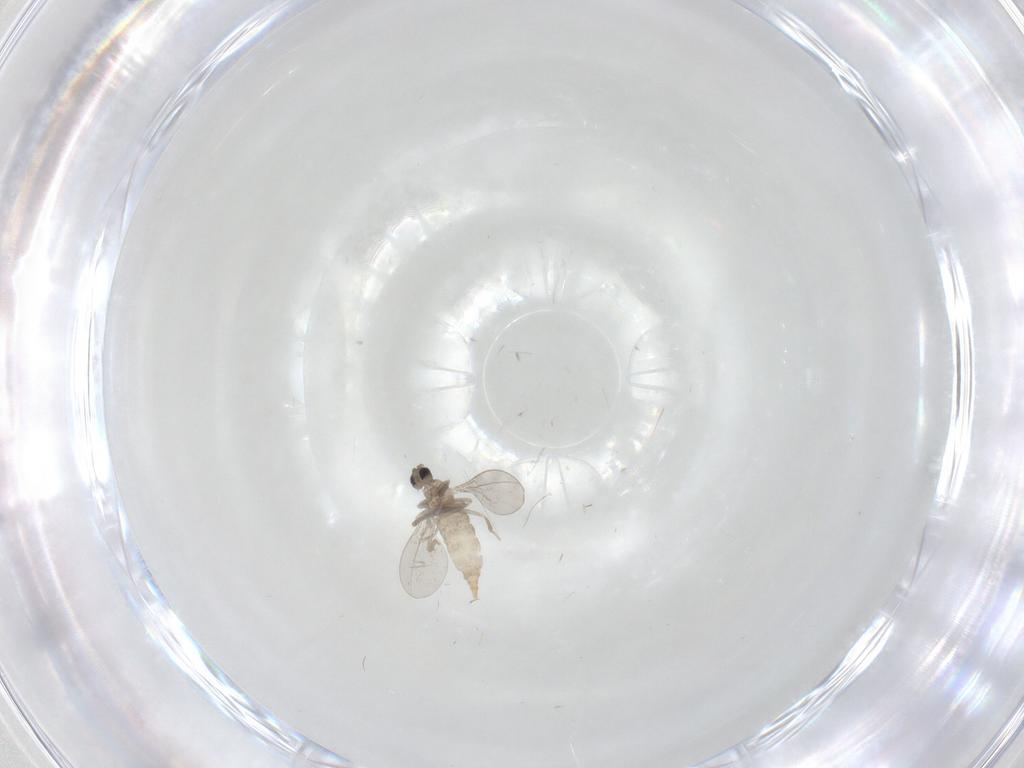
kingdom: Animalia
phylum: Arthropoda
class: Insecta
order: Diptera
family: Cecidomyiidae
